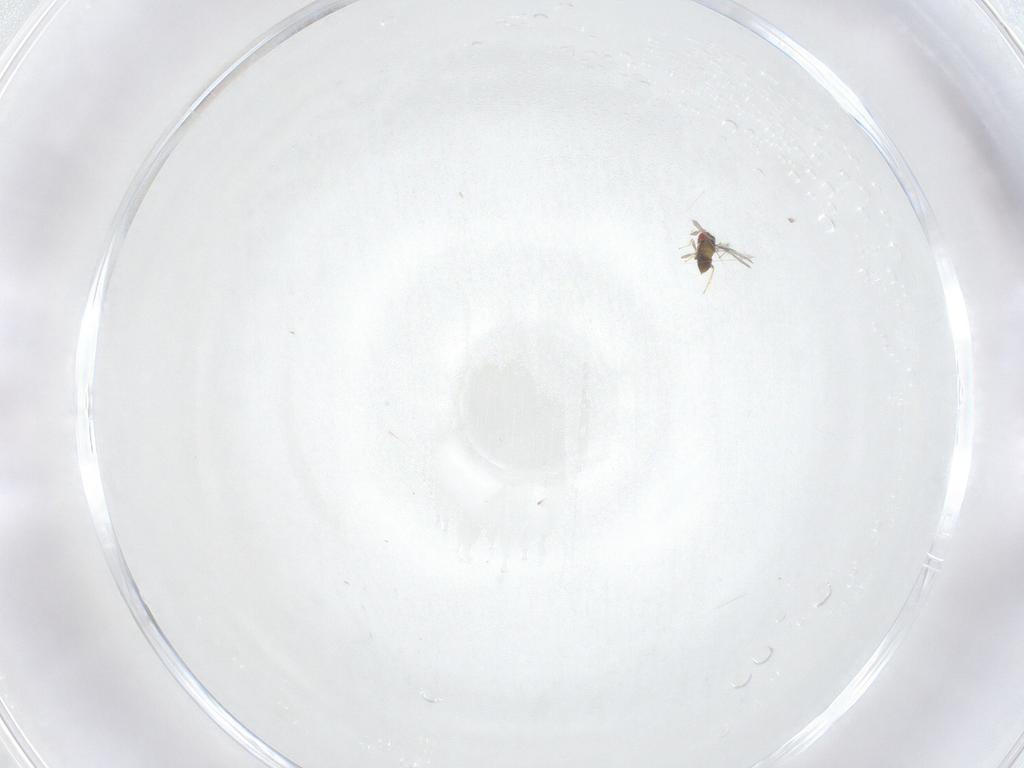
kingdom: Animalia
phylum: Arthropoda
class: Insecta
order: Hymenoptera
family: Trichogrammatidae
